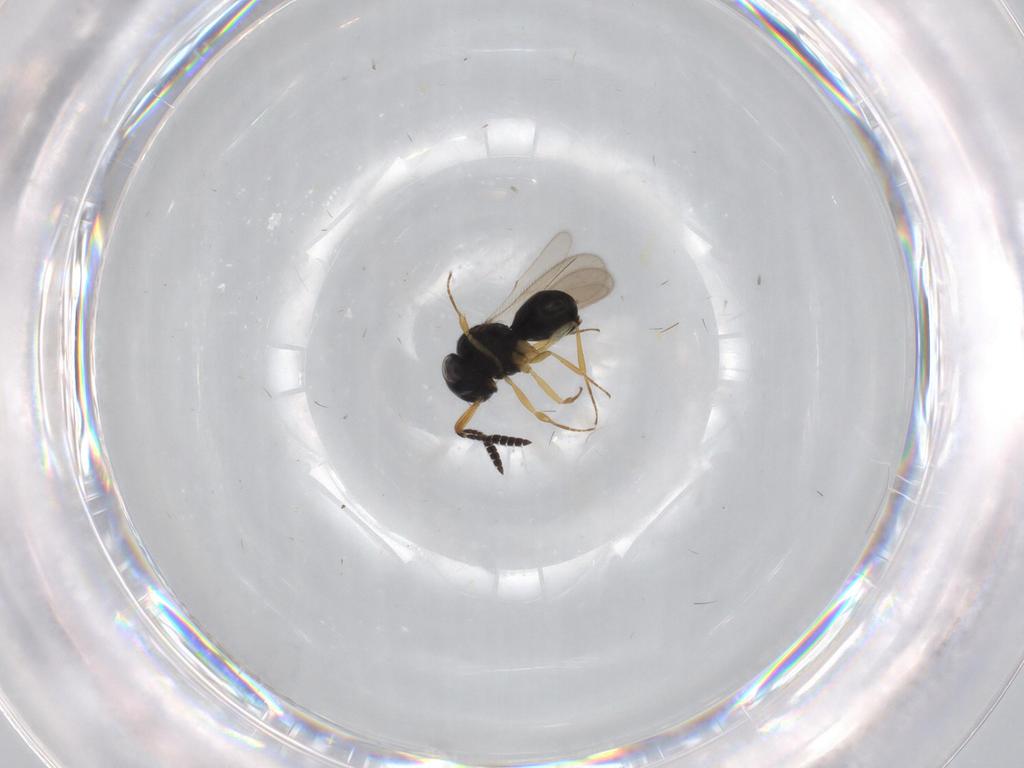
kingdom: Animalia
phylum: Arthropoda
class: Insecta
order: Hymenoptera
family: Scelionidae
